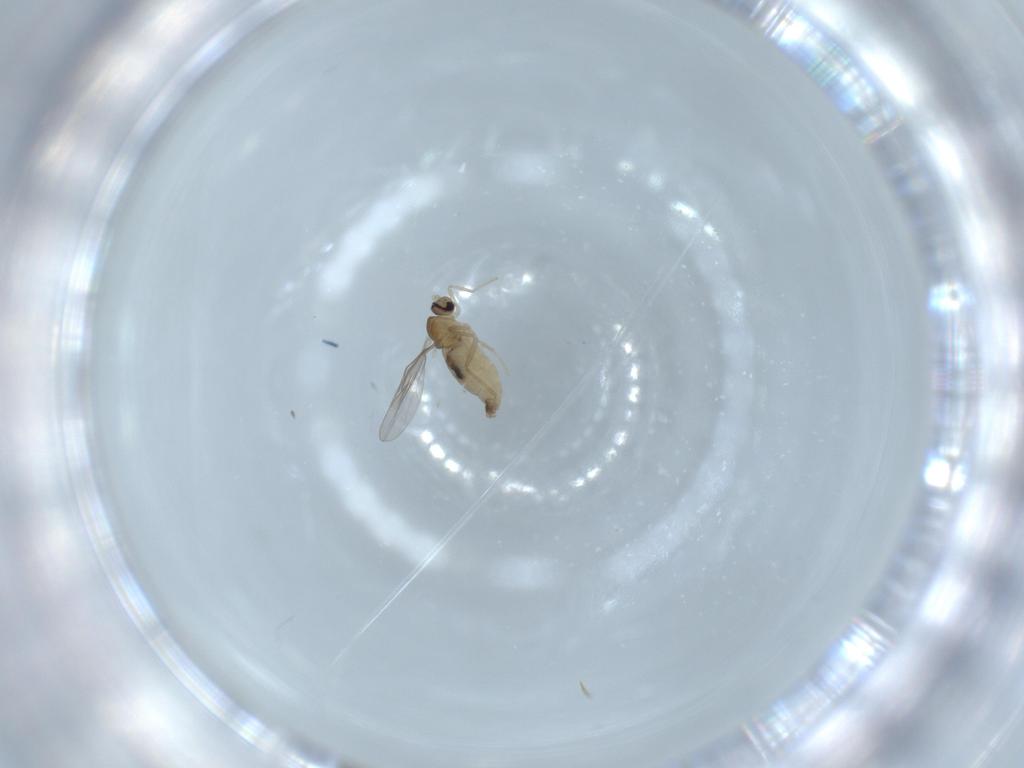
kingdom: Animalia
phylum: Arthropoda
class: Insecta
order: Diptera
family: Cecidomyiidae
